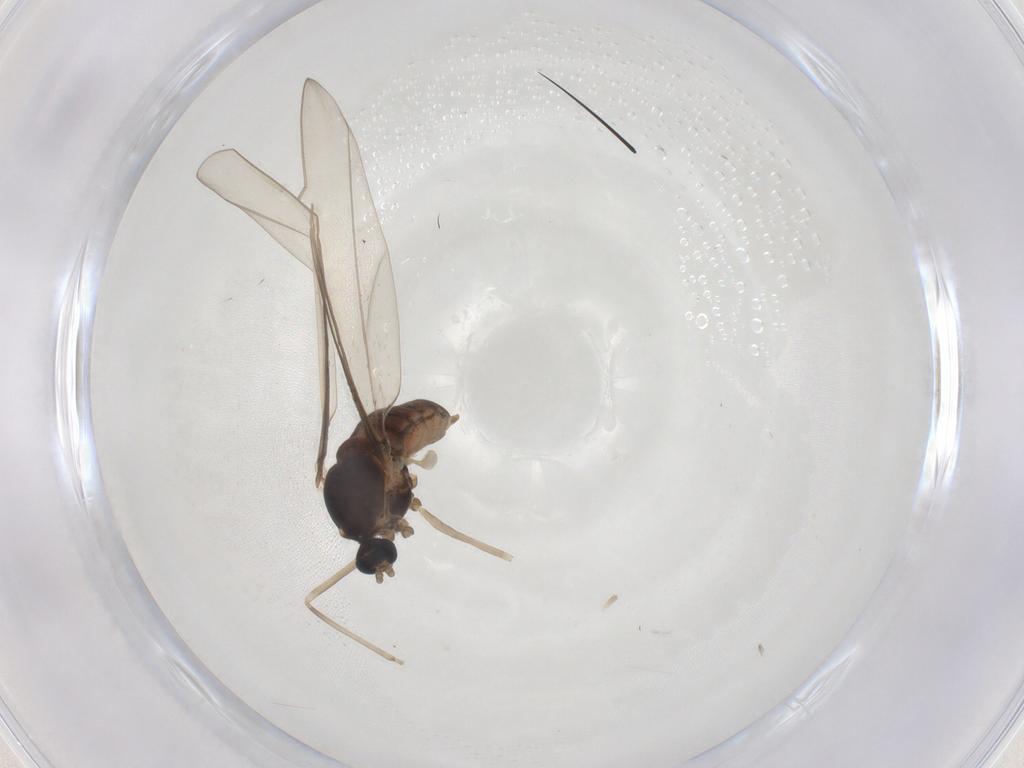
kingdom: Animalia
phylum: Arthropoda
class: Insecta
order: Diptera
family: Cecidomyiidae
